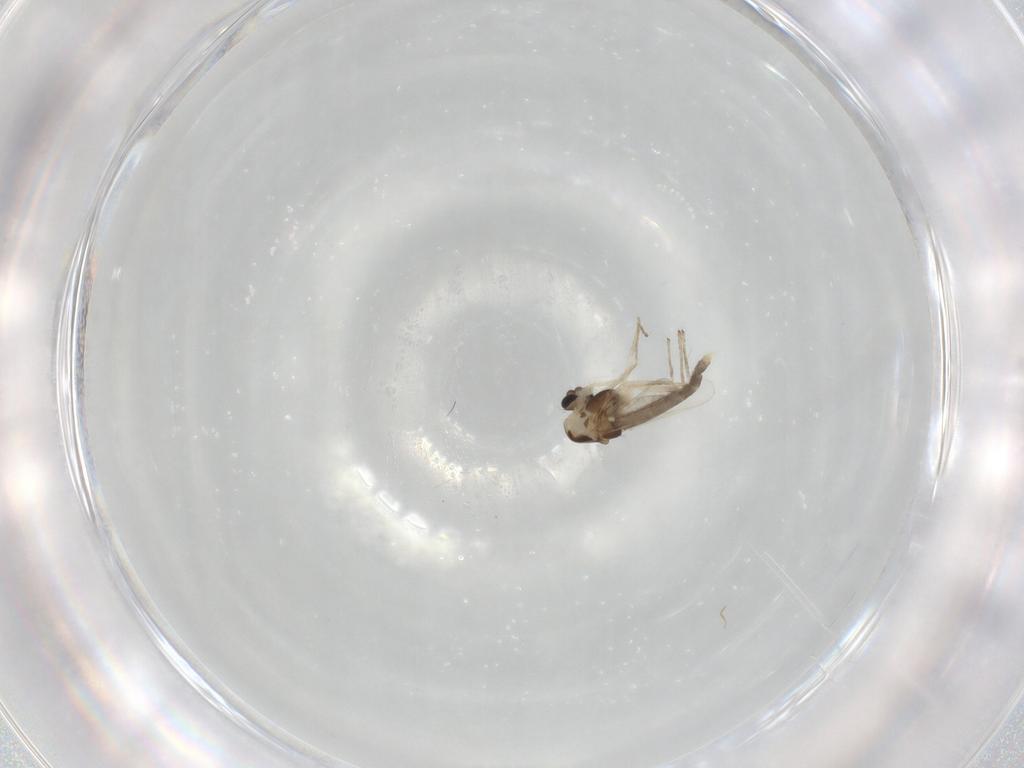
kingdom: Animalia
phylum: Arthropoda
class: Insecta
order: Diptera
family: Chironomidae
